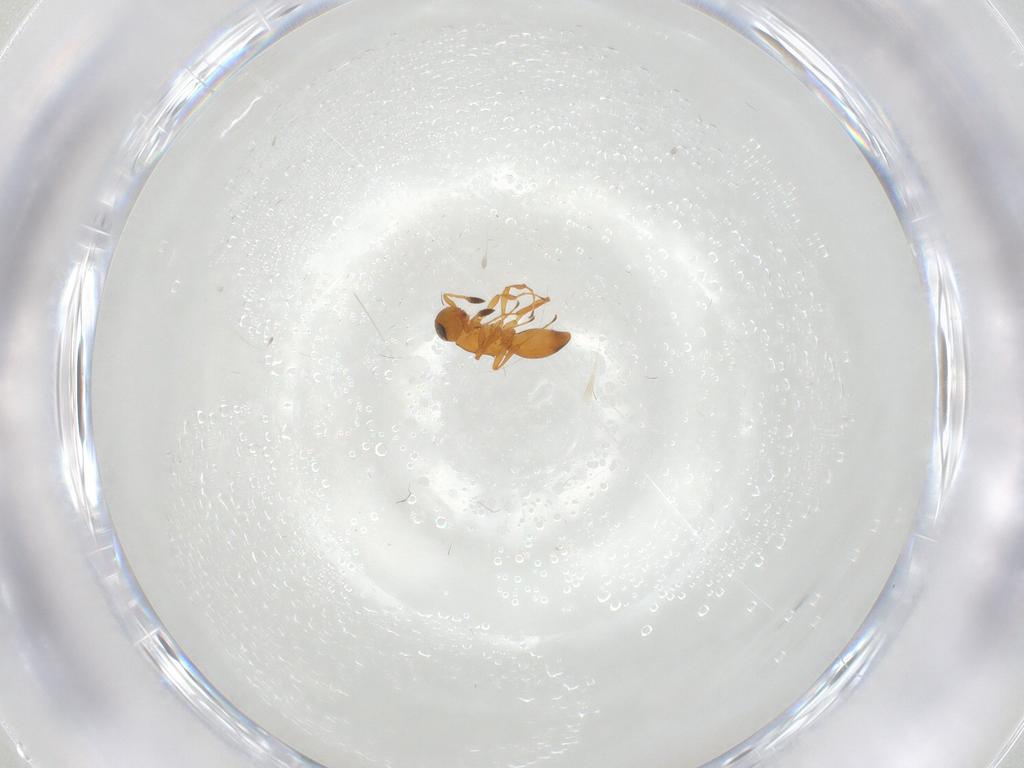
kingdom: Animalia
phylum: Arthropoda
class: Insecta
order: Hymenoptera
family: Platygastridae
